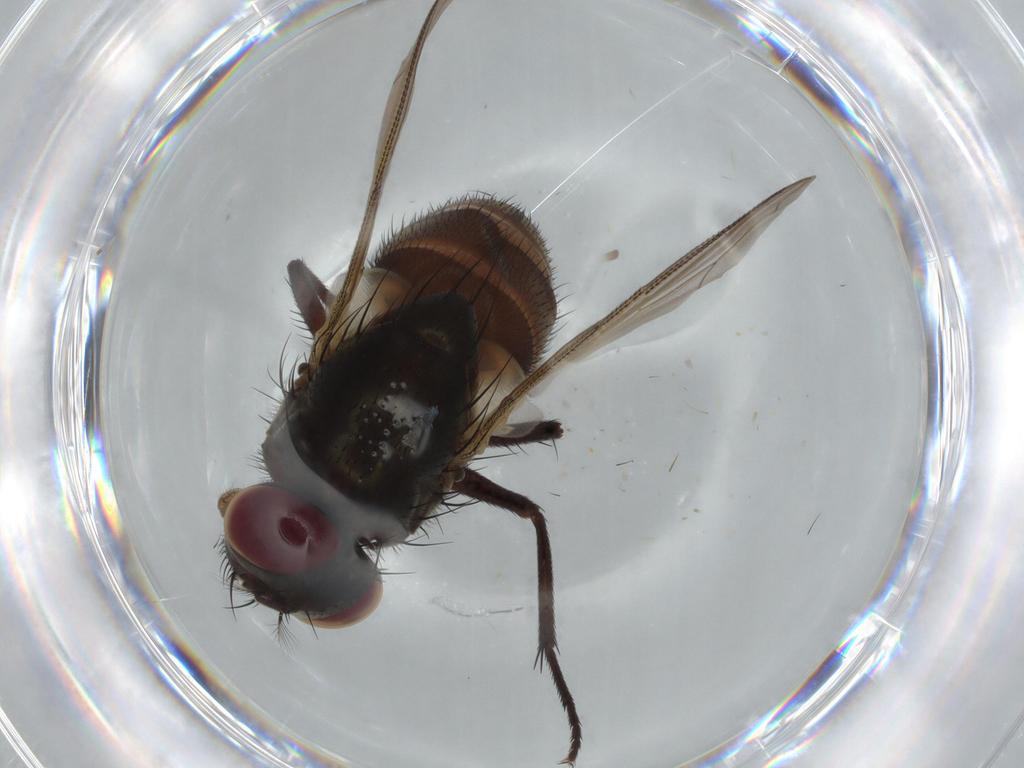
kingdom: Animalia
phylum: Arthropoda
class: Insecta
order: Diptera
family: Muscidae
